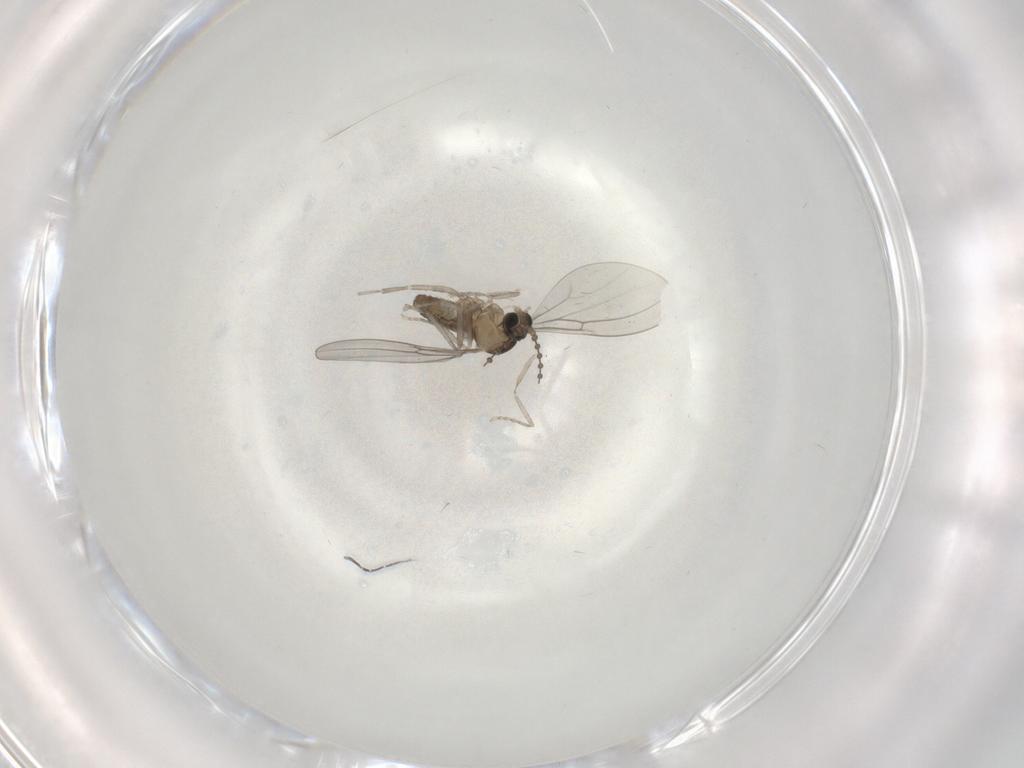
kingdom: Animalia
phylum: Arthropoda
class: Insecta
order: Diptera
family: Cecidomyiidae
